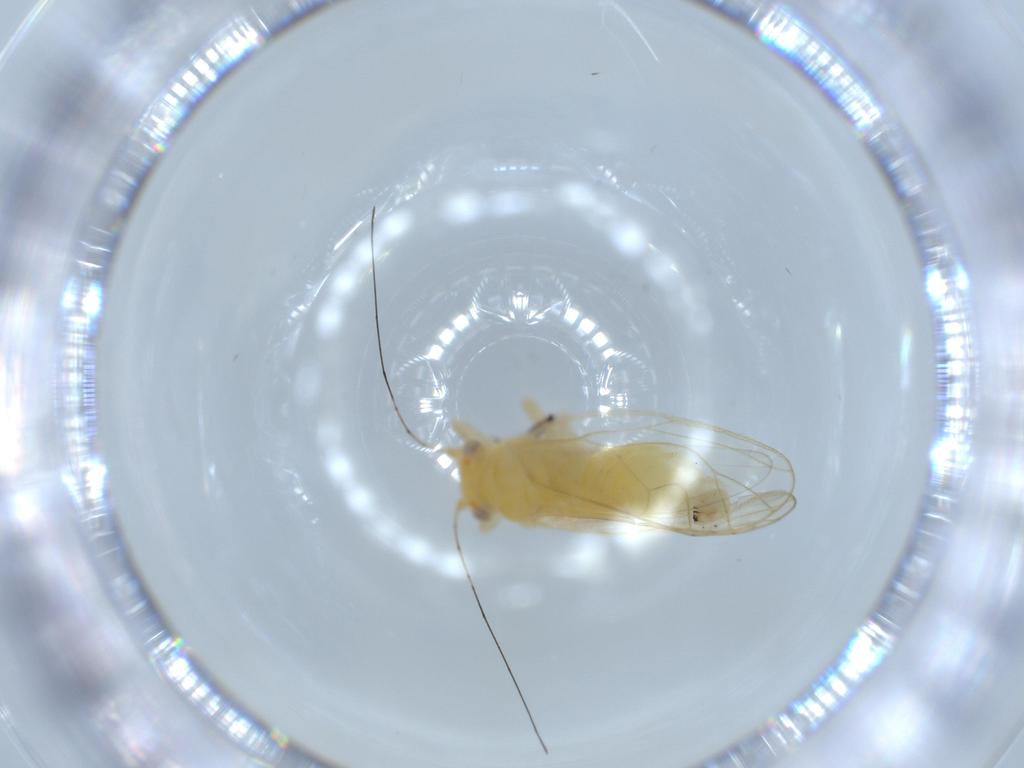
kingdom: Animalia
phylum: Arthropoda
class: Insecta
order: Hemiptera
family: Psyllidae
